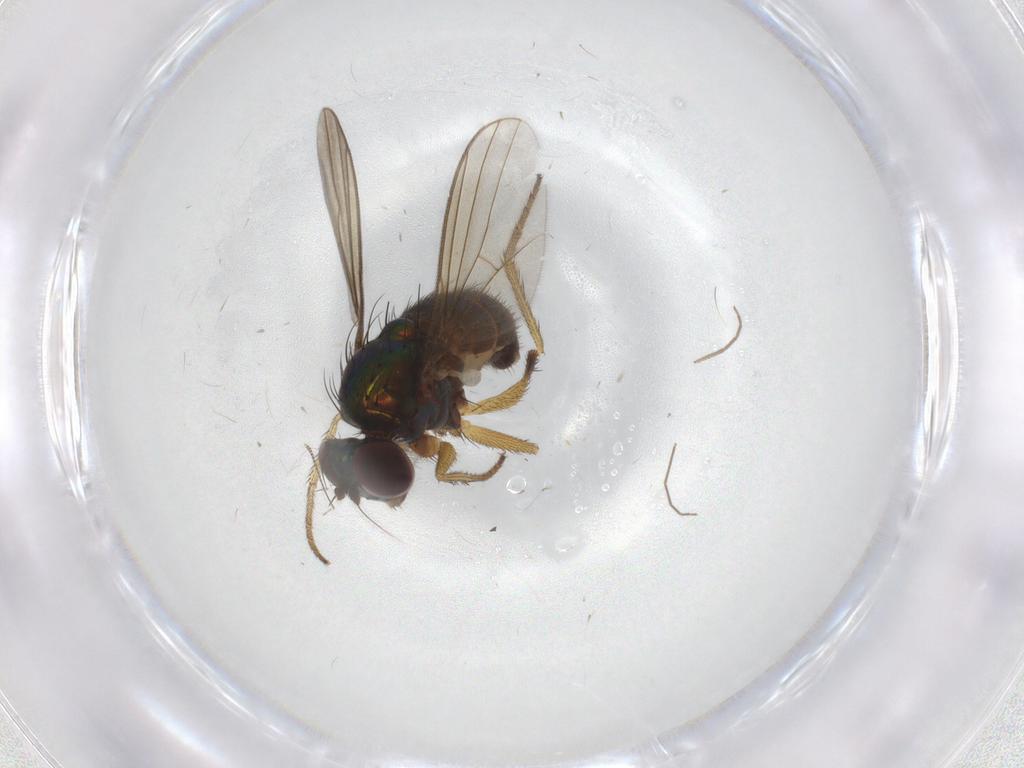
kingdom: Animalia
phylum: Arthropoda
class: Insecta
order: Diptera
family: Dolichopodidae
